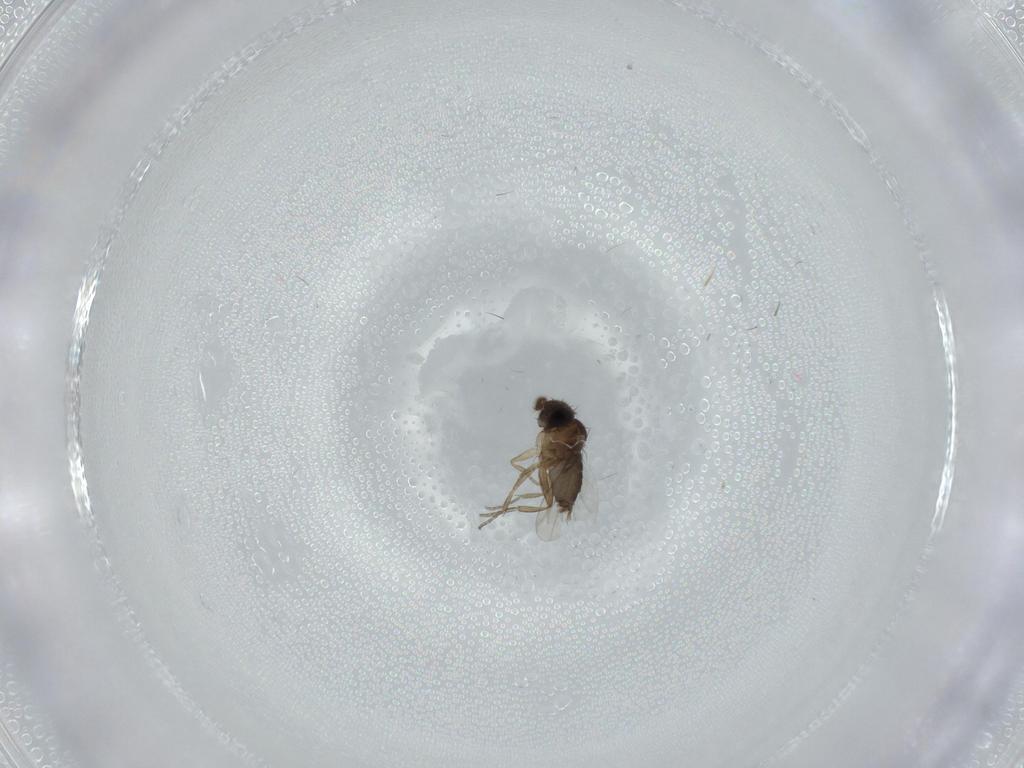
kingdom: Animalia
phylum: Arthropoda
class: Insecta
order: Diptera
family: Phoridae
